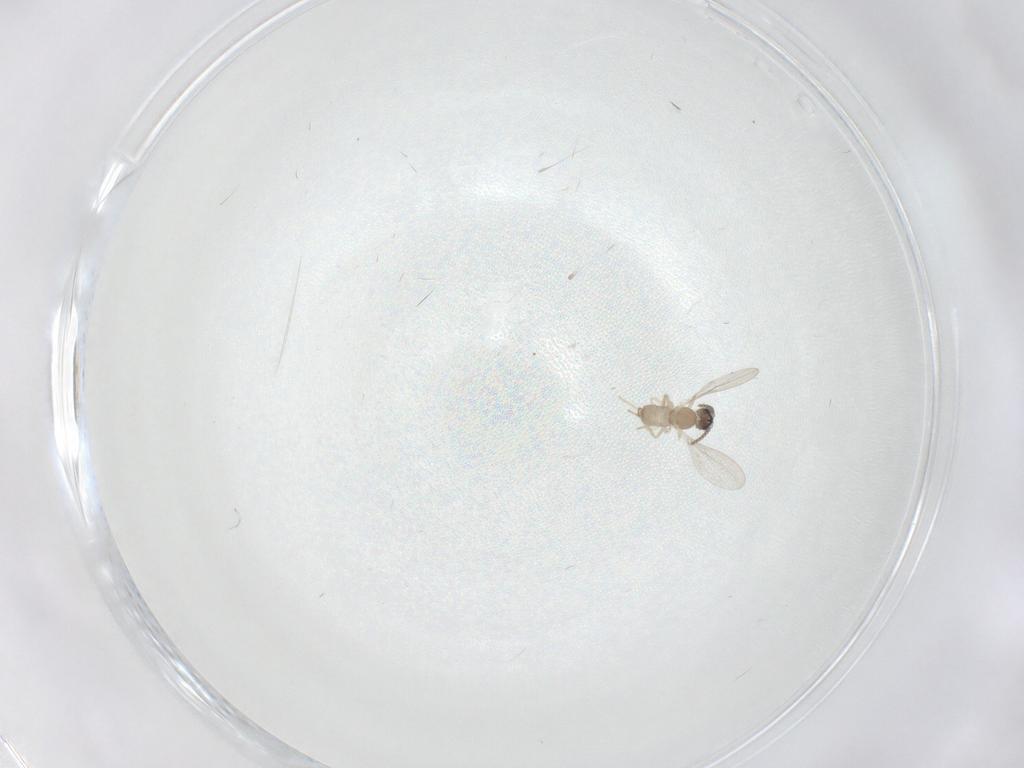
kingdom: Animalia
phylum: Arthropoda
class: Insecta
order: Diptera
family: Cecidomyiidae
